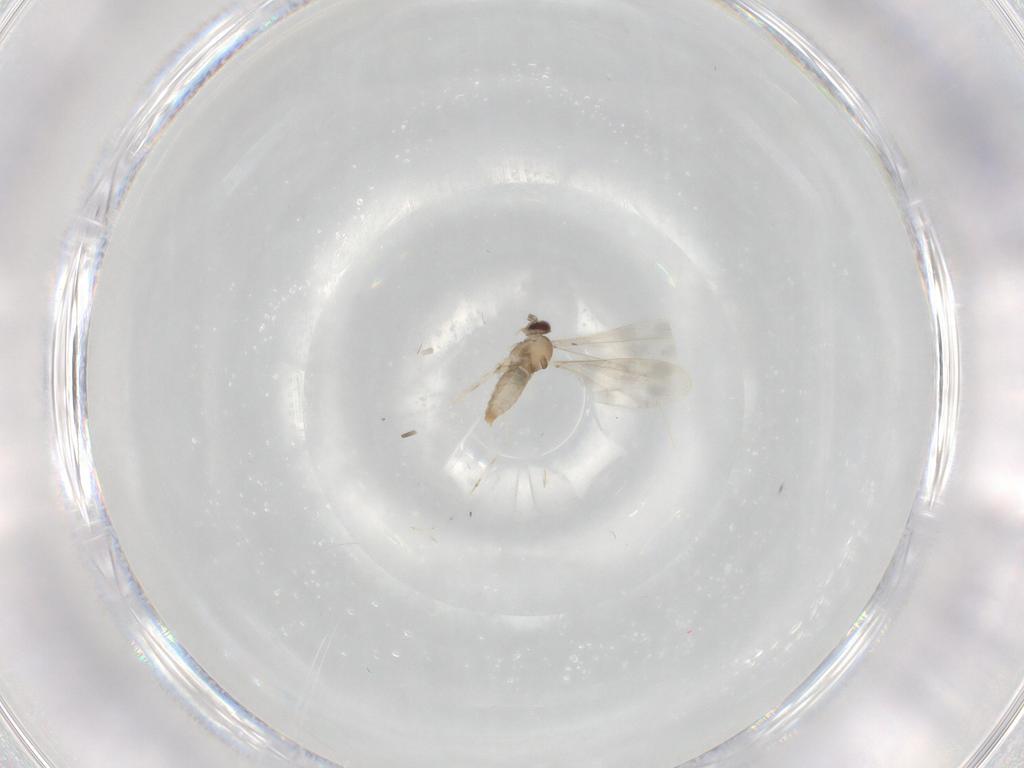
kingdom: Animalia
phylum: Arthropoda
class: Insecta
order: Diptera
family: Cecidomyiidae
